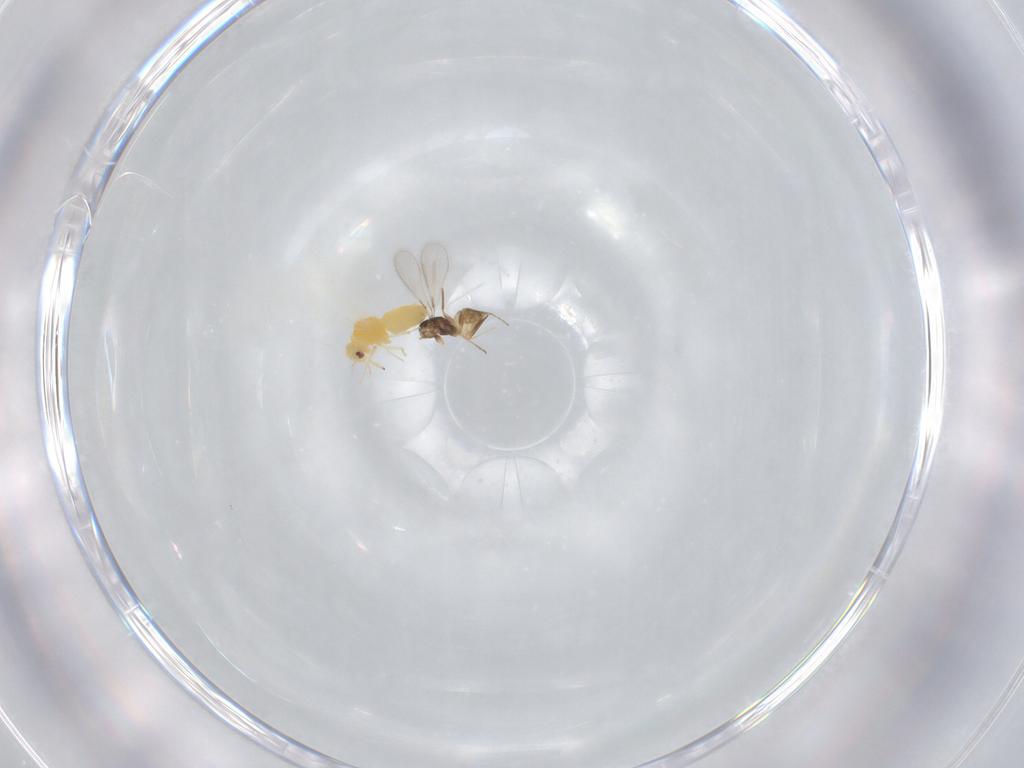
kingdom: Animalia
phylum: Arthropoda
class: Insecta
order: Hymenoptera
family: Mymaridae
